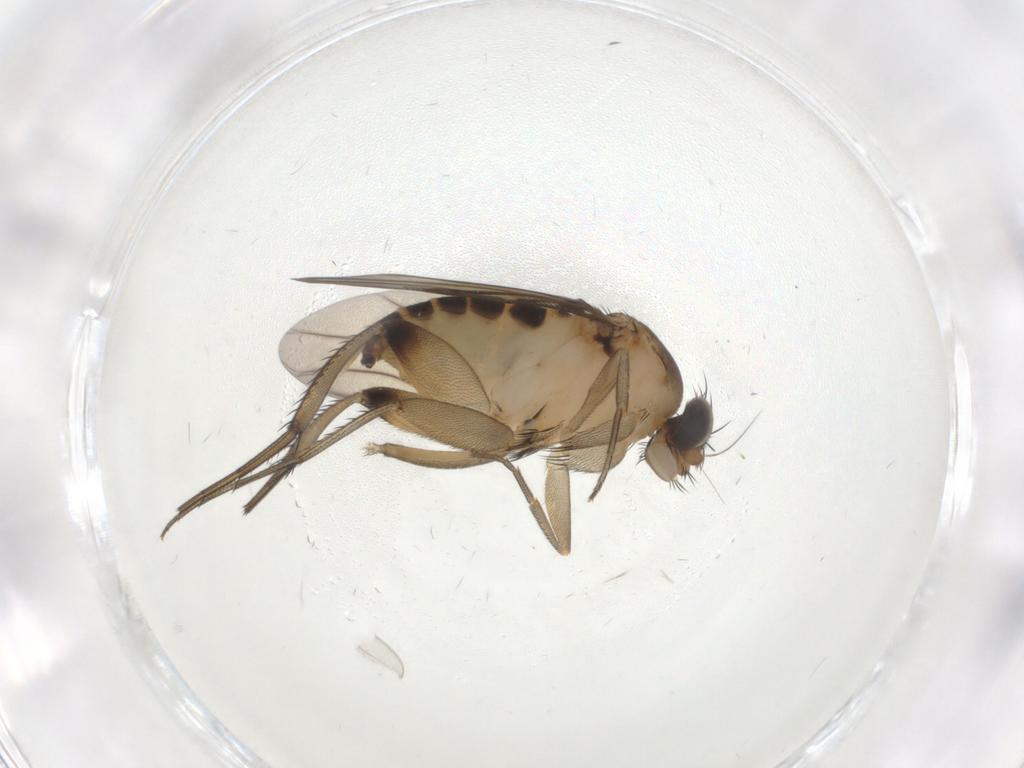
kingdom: Animalia
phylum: Arthropoda
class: Insecta
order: Diptera
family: Phoridae
